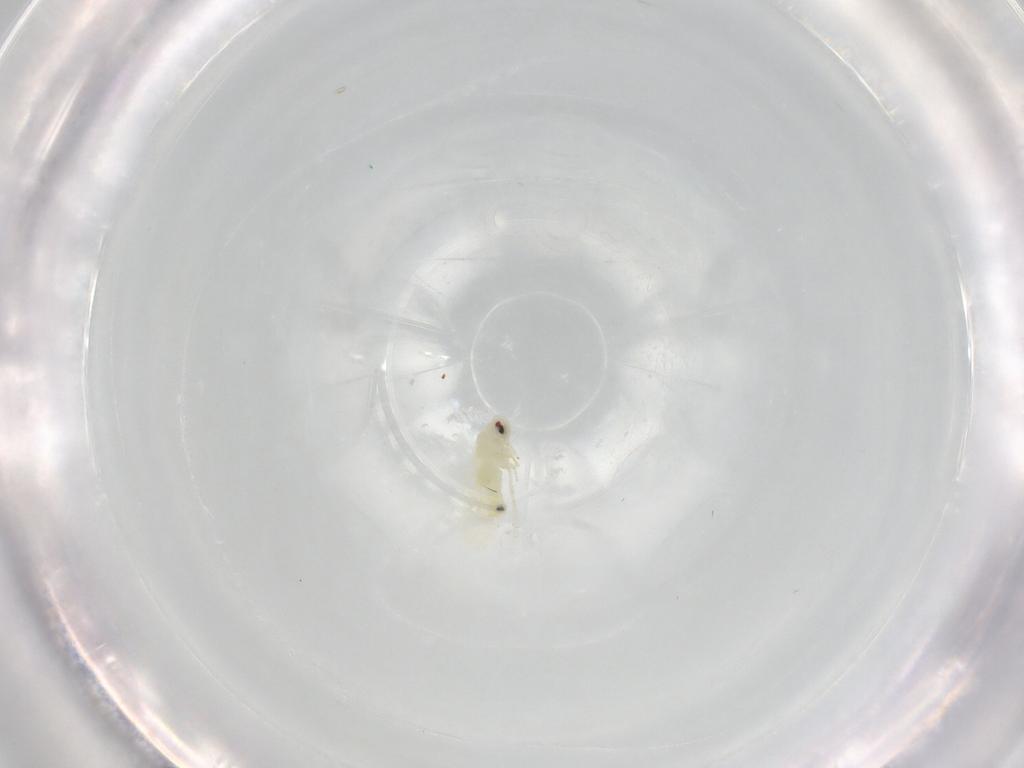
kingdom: Animalia
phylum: Arthropoda
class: Insecta
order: Hemiptera
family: Aleyrodidae
